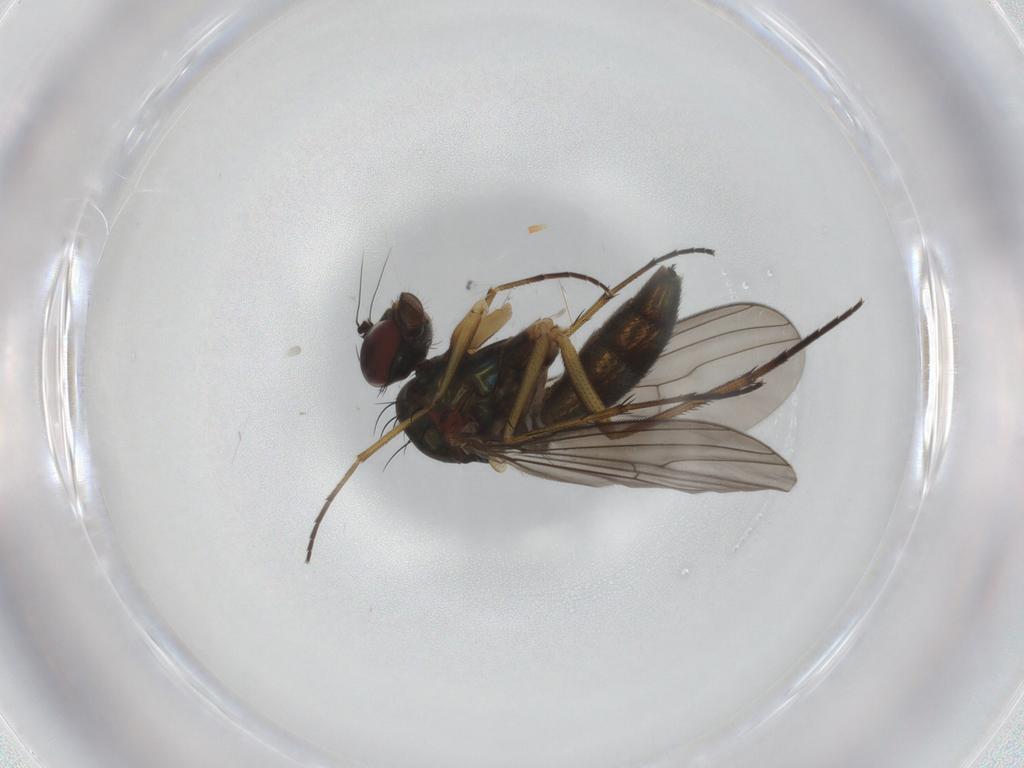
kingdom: Animalia
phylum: Arthropoda
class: Insecta
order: Diptera
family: Dolichopodidae
